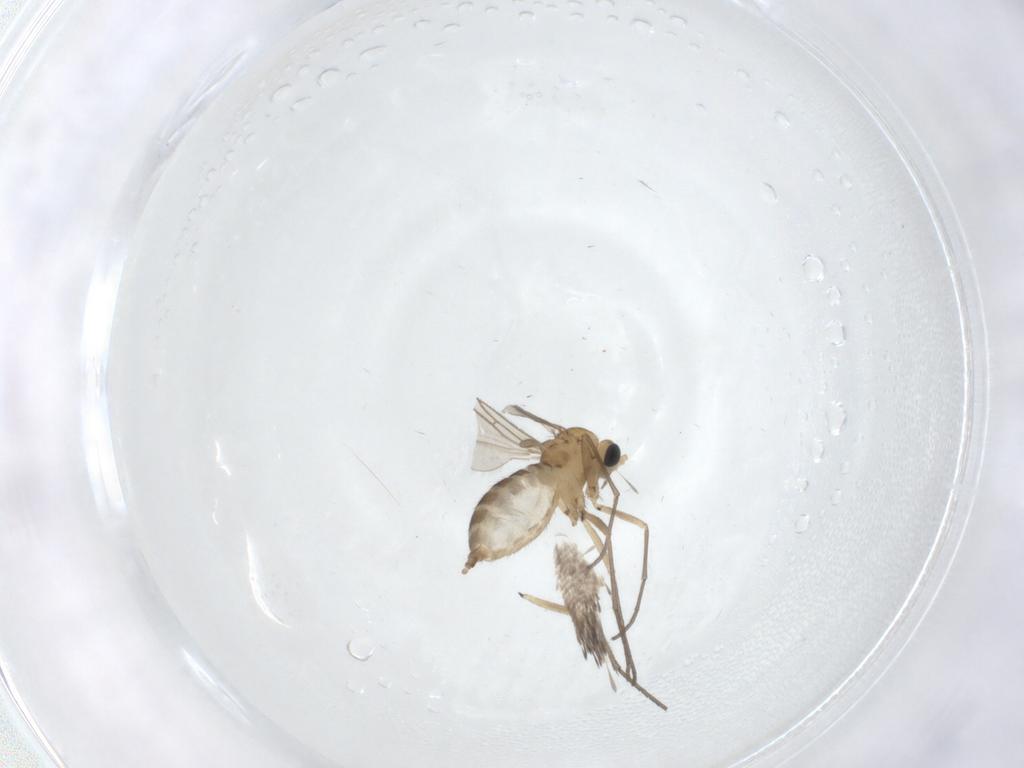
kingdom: Animalia
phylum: Arthropoda
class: Insecta
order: Diptera
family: Sciaridae
